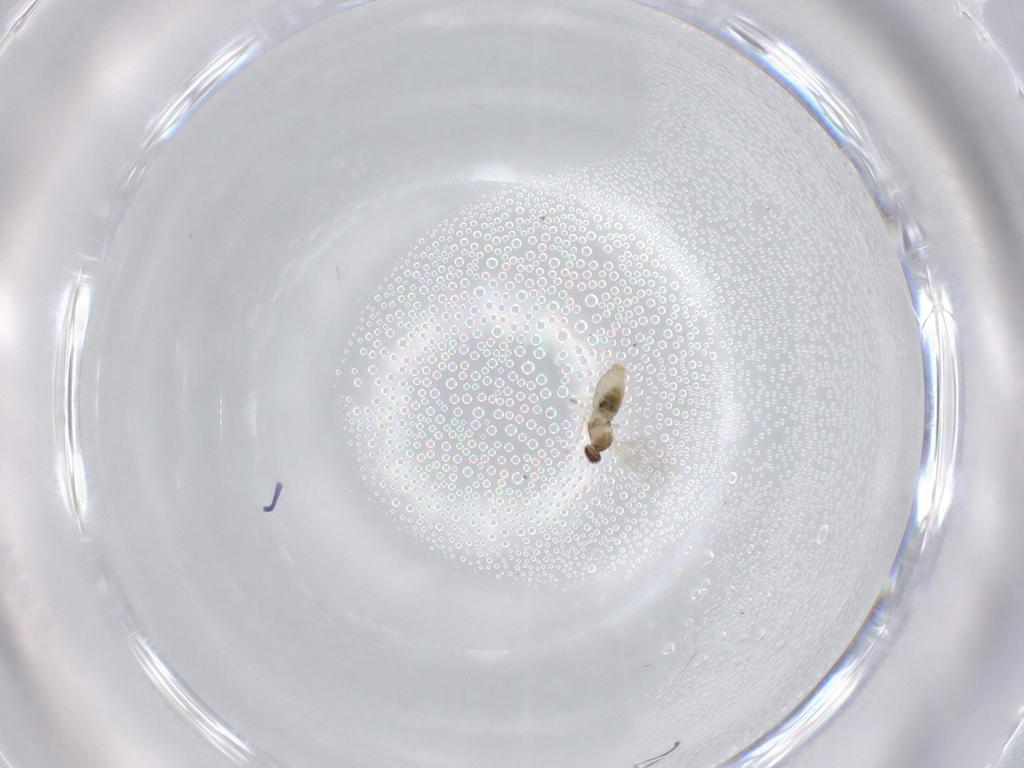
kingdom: Animalia
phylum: Arthropoda
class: Insecta
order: Diptera
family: Cecidomyiidae
